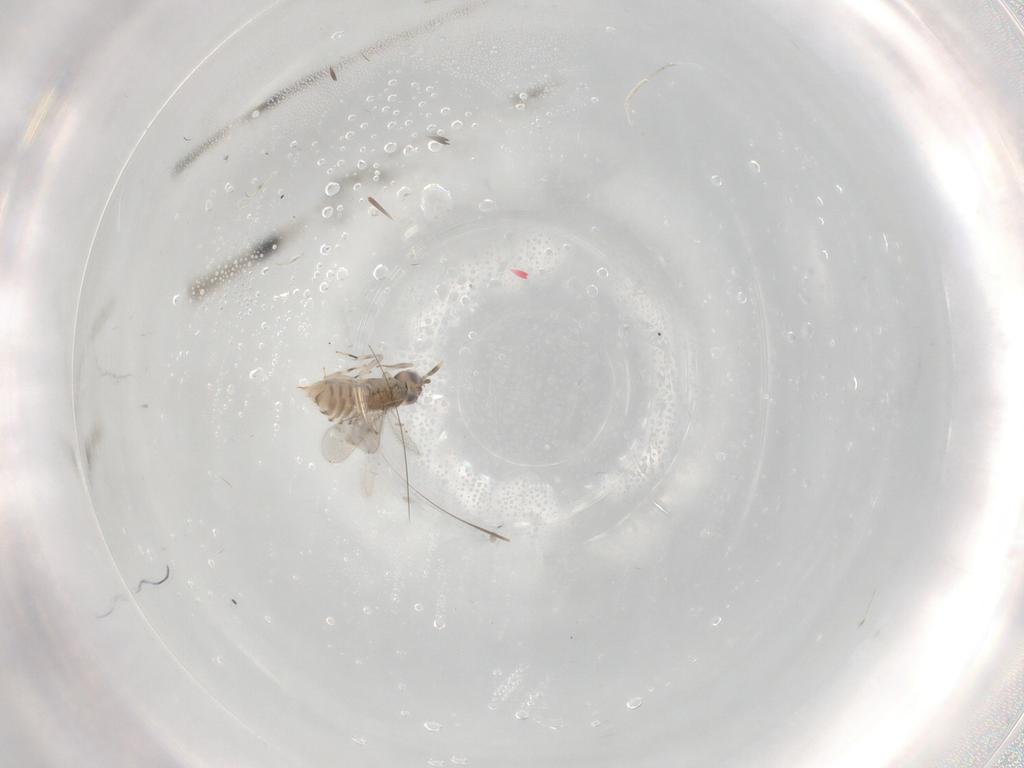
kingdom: Animalia
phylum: Arthropoda
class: Insecta
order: Hymenoptera
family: Aphelinidae
